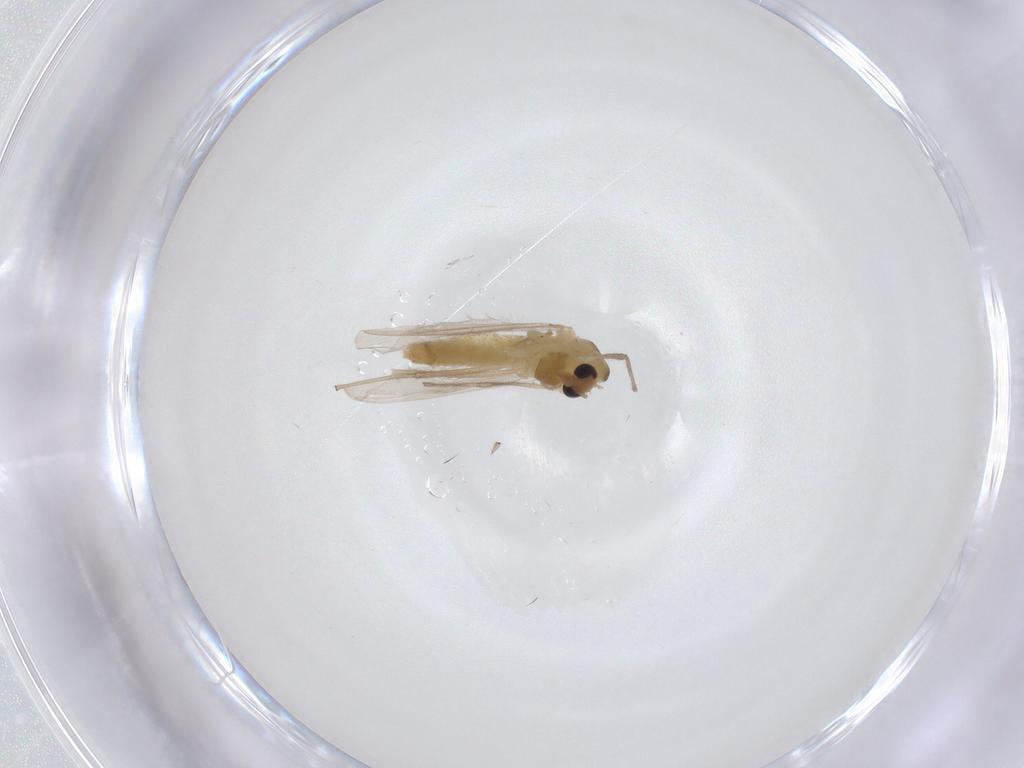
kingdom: Animalia
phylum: Arthropoda
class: Insecta
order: Diptera
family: Chironomidae
